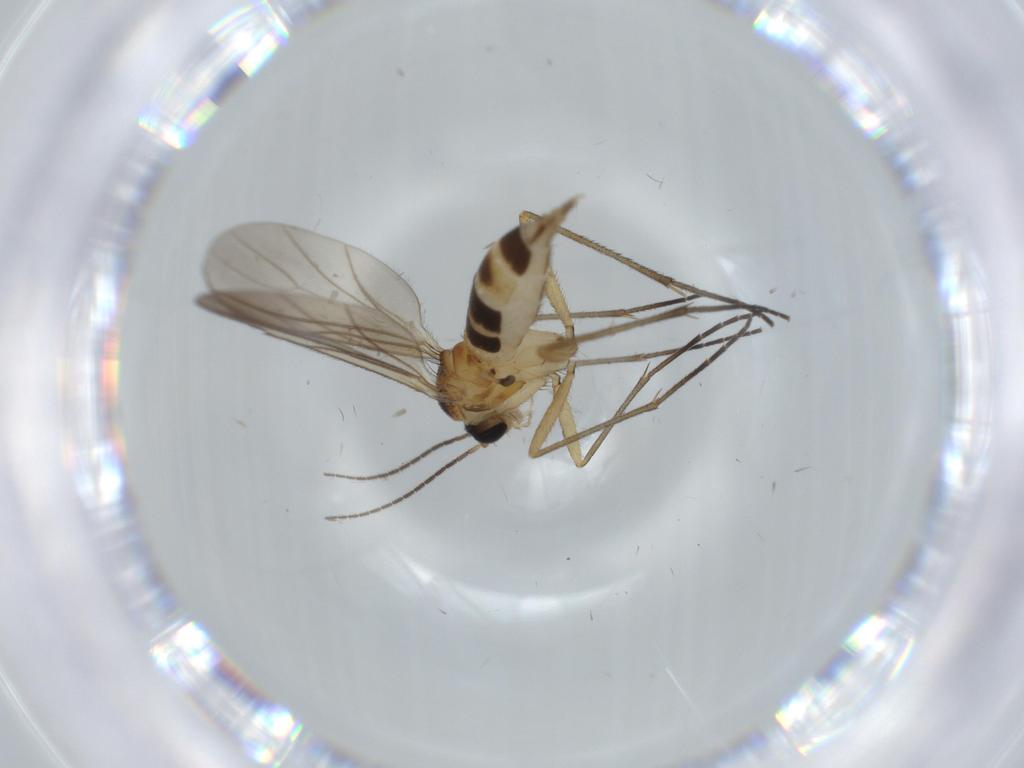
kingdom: Animalia
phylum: Arthropoda
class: Insecta
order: Diptera
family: Sciaridae
